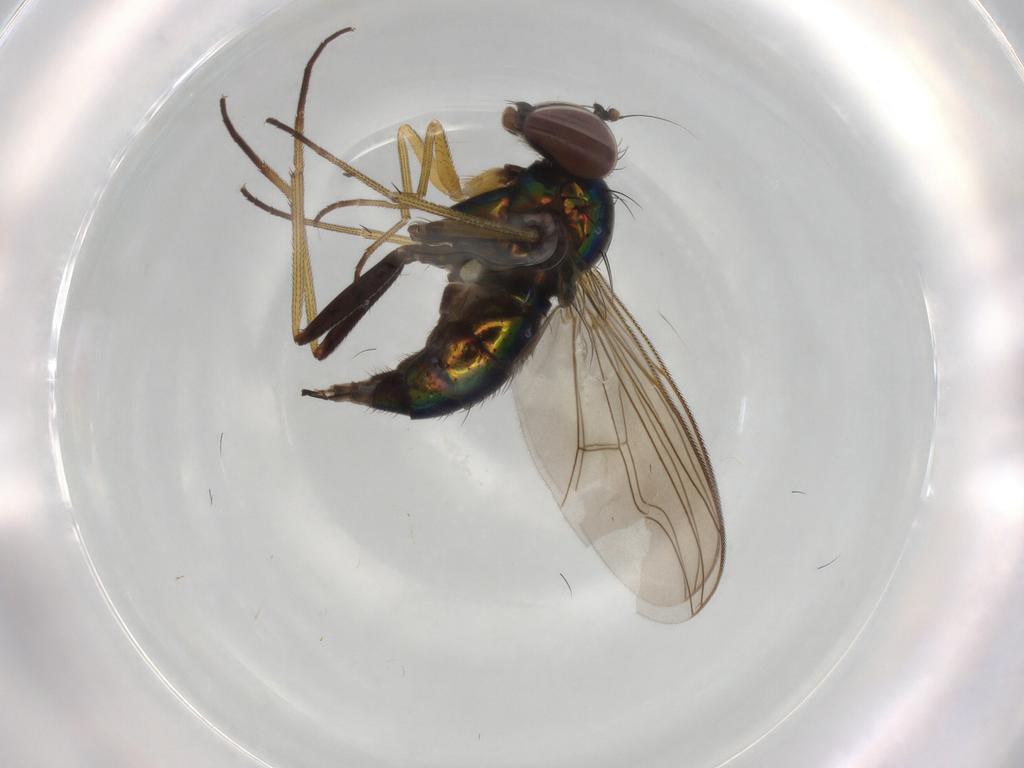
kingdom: Animalia
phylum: Arthropoda
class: Insecta
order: Diptera
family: Dolichopodidae
